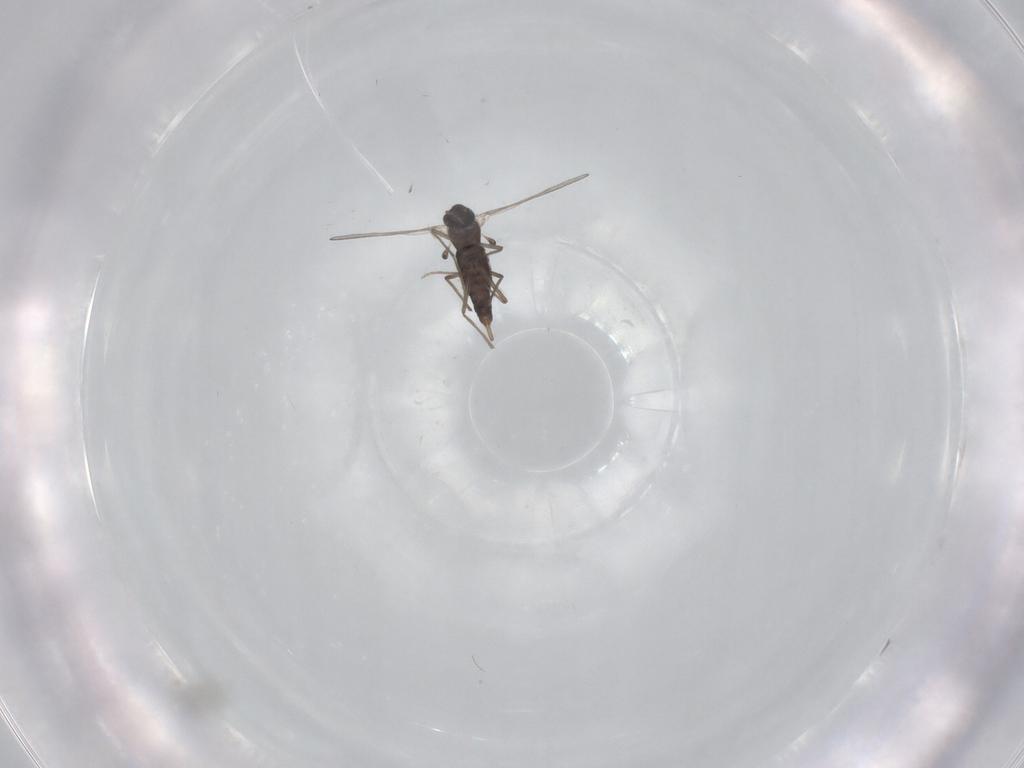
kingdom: Animalia
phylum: Arthropoda
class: Insecta
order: Diptera
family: Chironomidae
